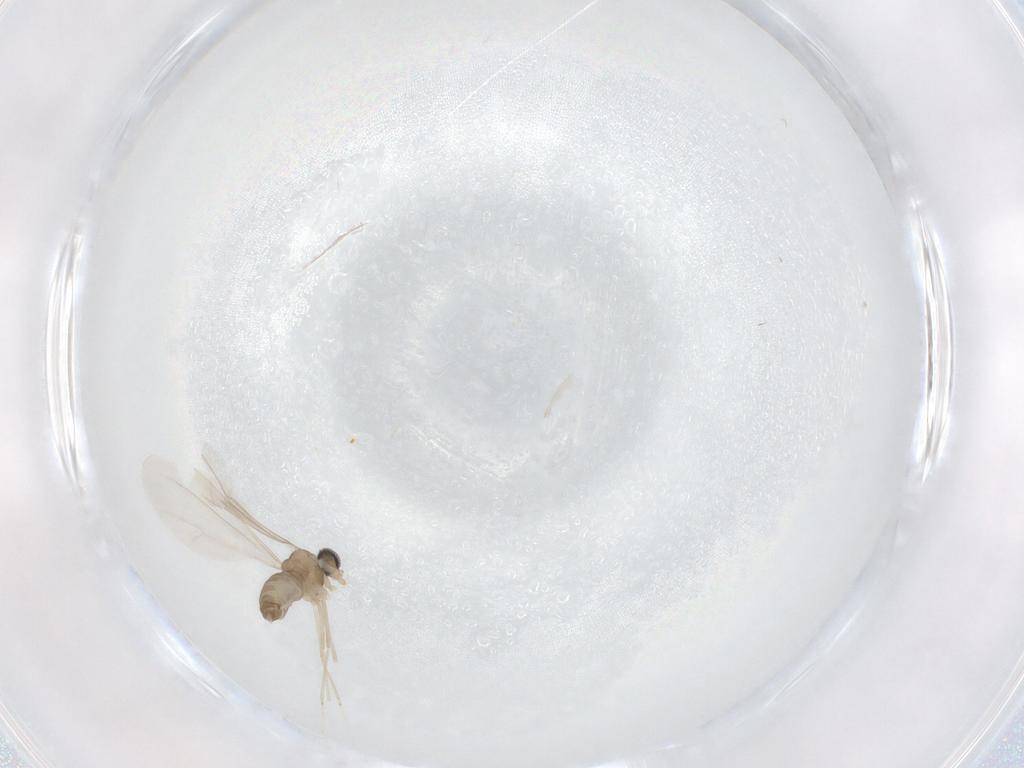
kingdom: Animalia
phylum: Arthropoda
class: Insecta
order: Diptera
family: Cecidomyiidae
